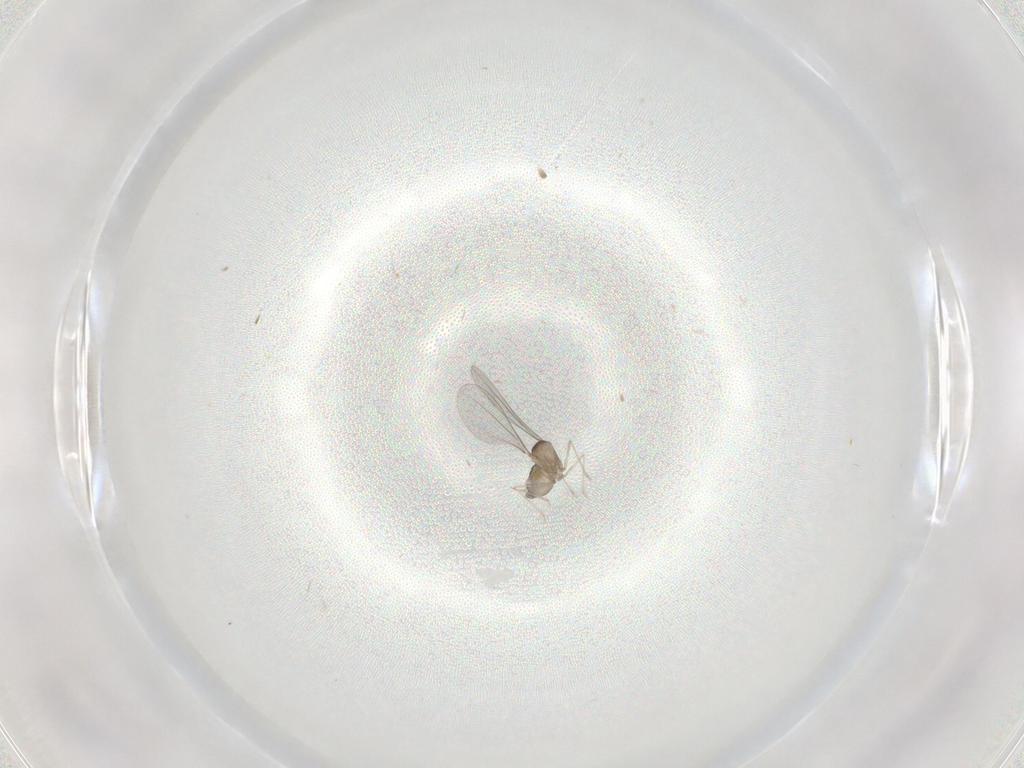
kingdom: Animalia
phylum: Arthropoda
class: Insecta
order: Diptera
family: Cecidomyiidae
